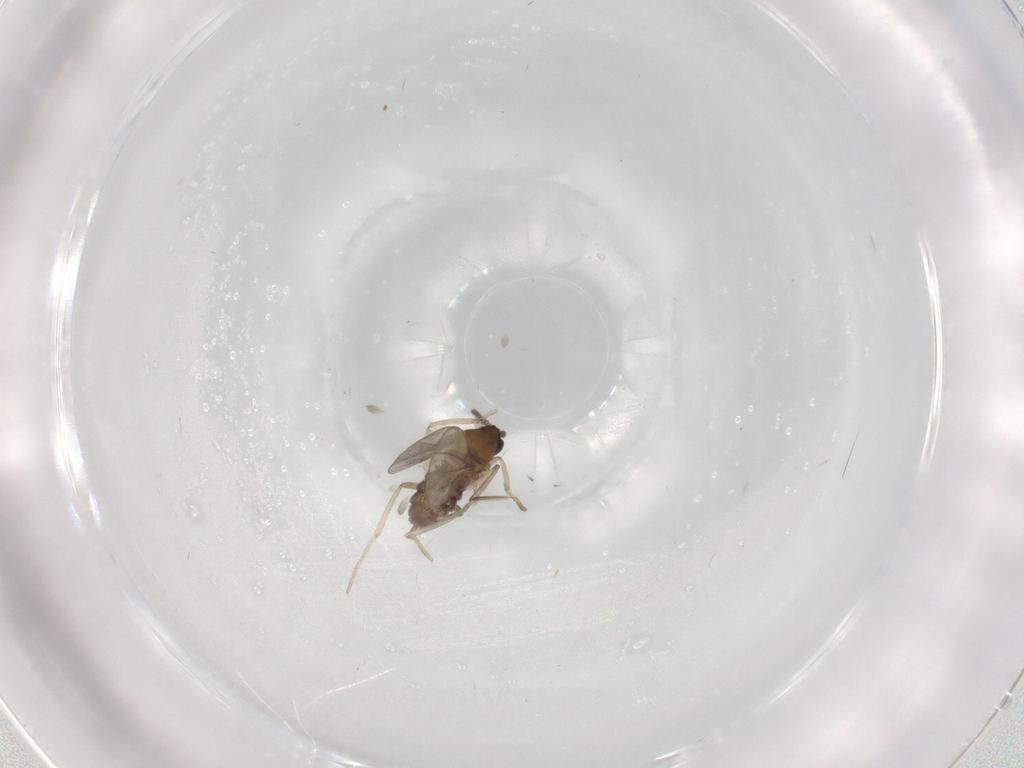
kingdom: Animalia
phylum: Arthropoda
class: Insecta
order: Diptera
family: Cecidomyiidae
